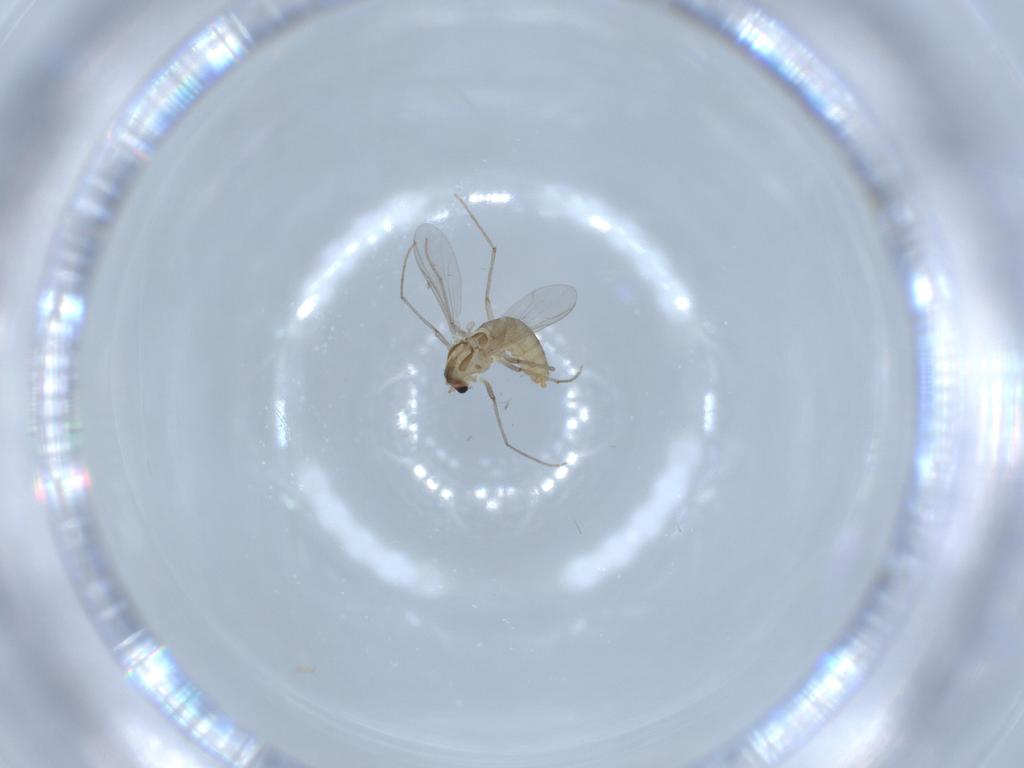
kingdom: Animalia
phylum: Arthropoda
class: Insecta
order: Diptera
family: Chironomidae
